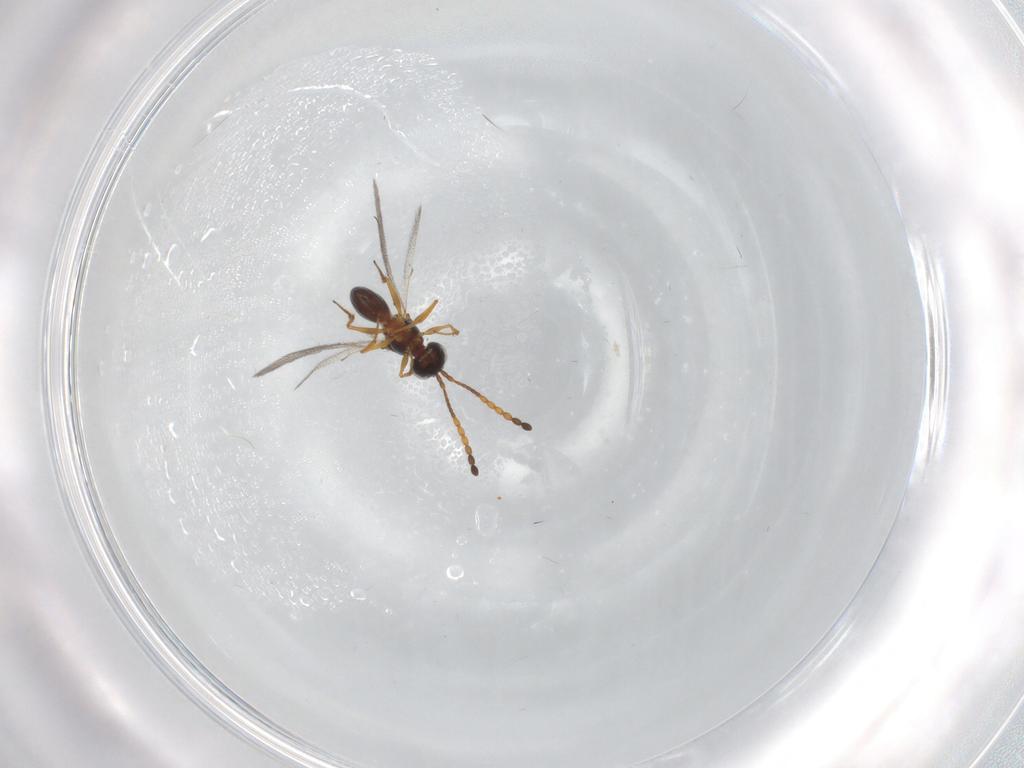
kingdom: Animalia
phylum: Arthropoda
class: Insecta
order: Hymenoptera
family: Figitidae
